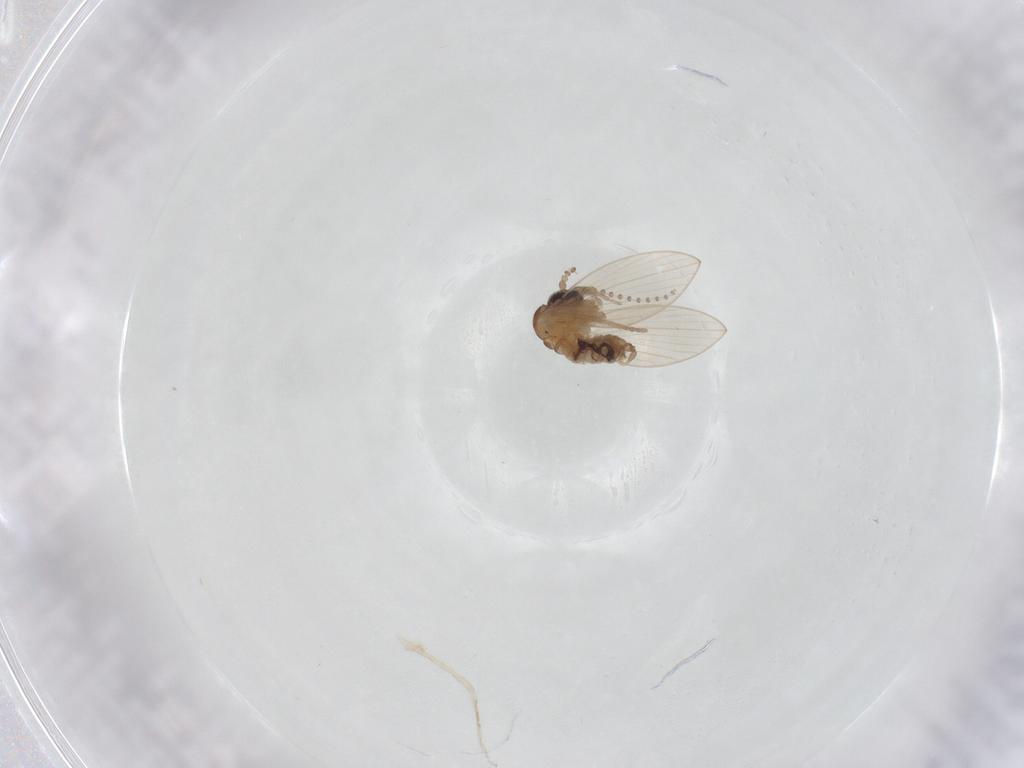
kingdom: Animalia
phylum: Arthropoda
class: Insecta
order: Diptera
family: Psychodidae
